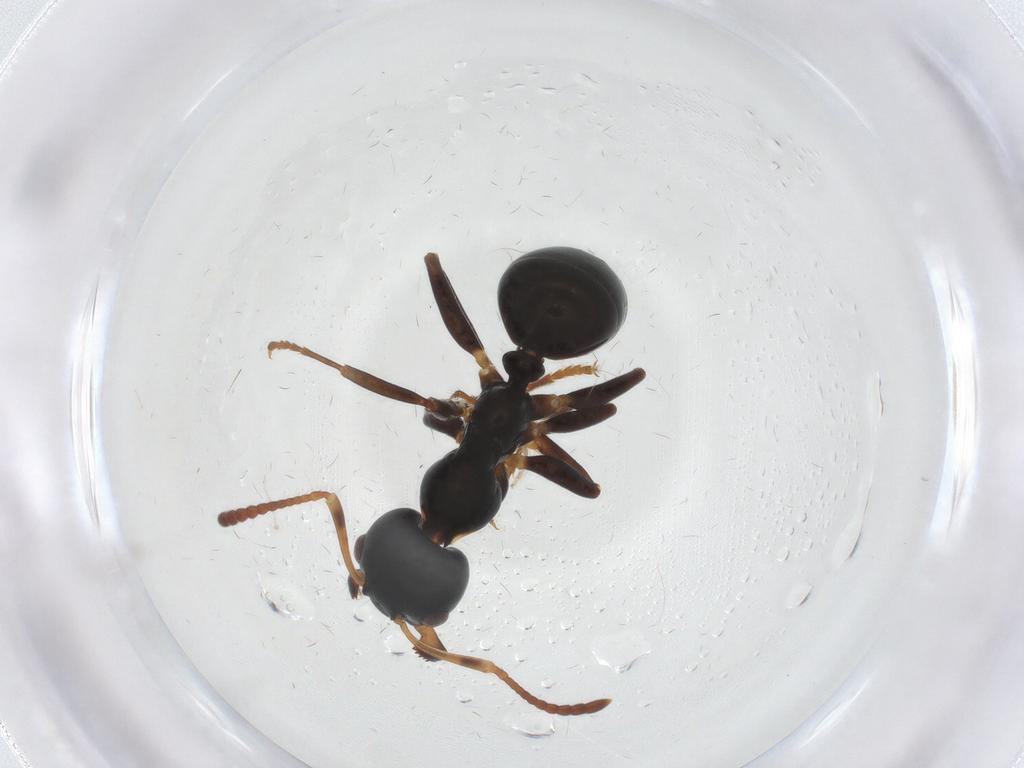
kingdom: Animalia
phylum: Arthropoda
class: Insecta
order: Hymenoptera
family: Formicidae
